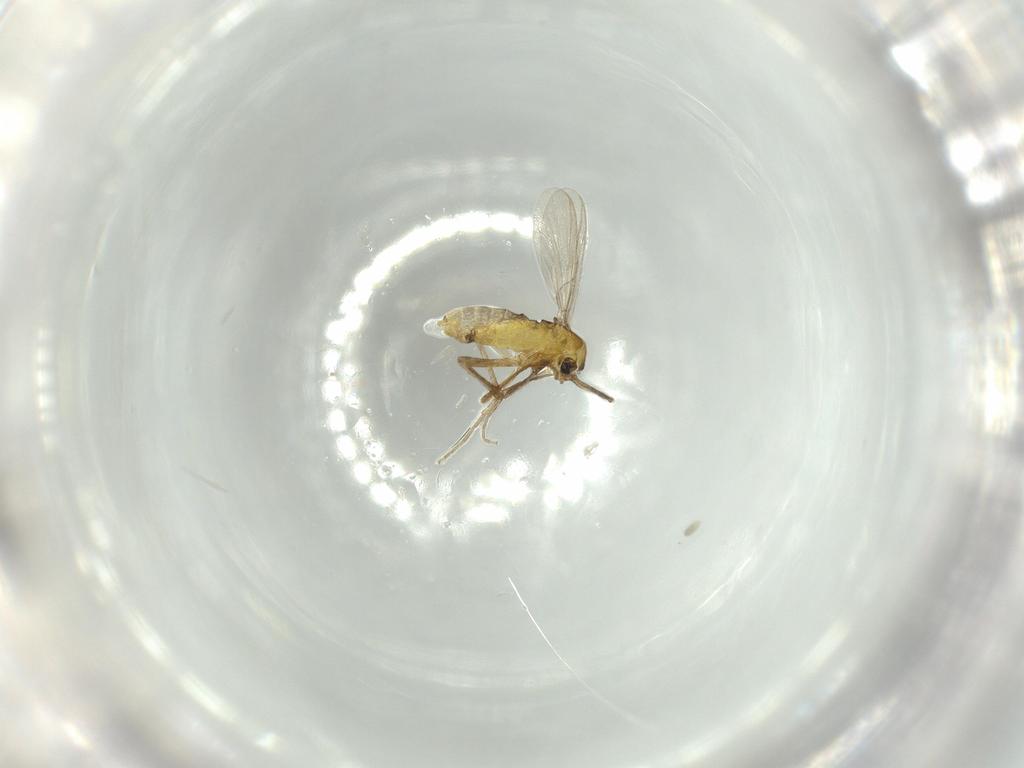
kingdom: Animalia
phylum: Arthropoda
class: Insecta
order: Diptera
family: Chironomidae
